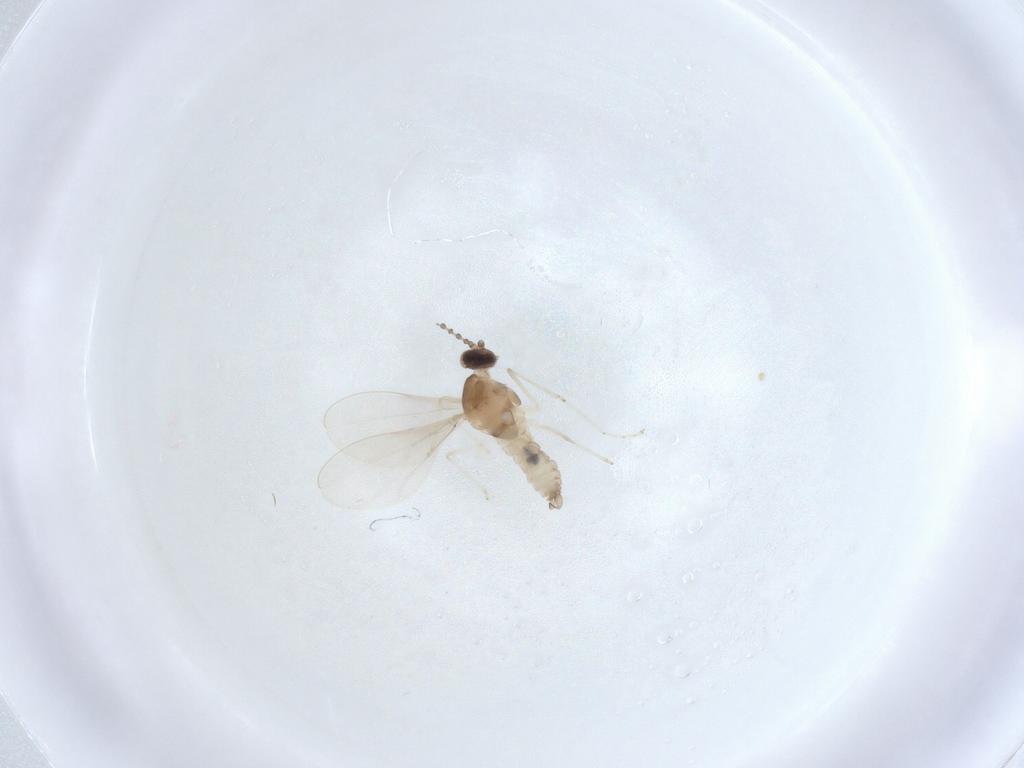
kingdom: Animalia
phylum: Arthropoda
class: Insecta
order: Diptera
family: Cecidomyiidae
